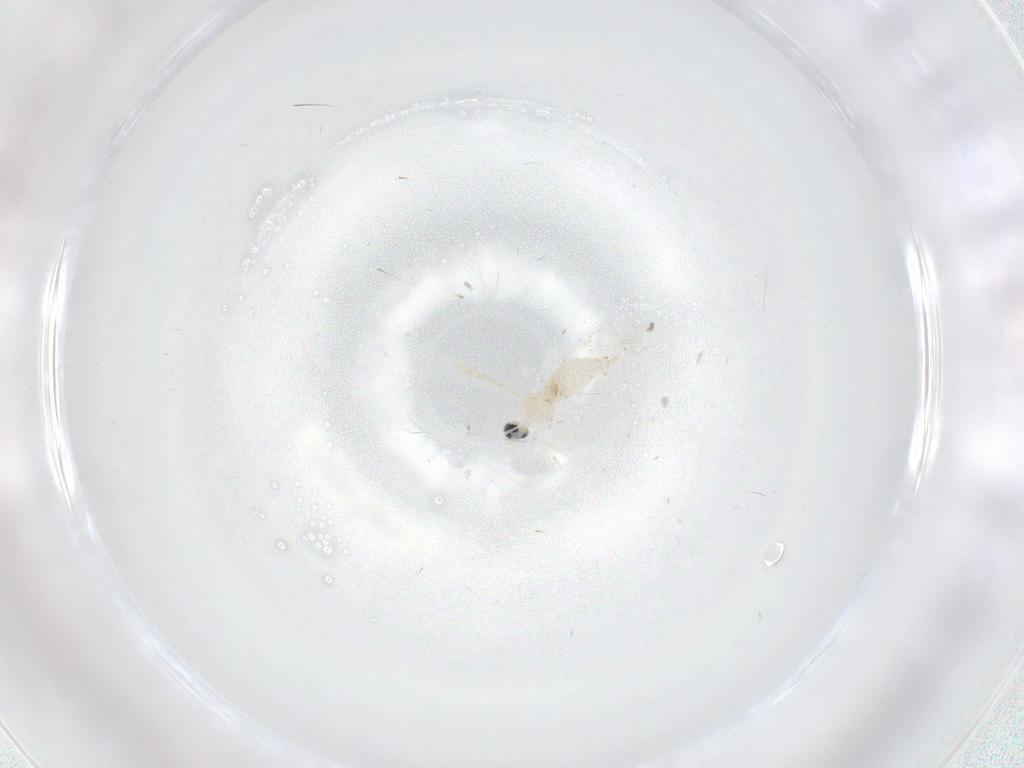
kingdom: Animalia
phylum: Arthropoda
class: Insecta
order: Diptera
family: Cecidomyiidae
